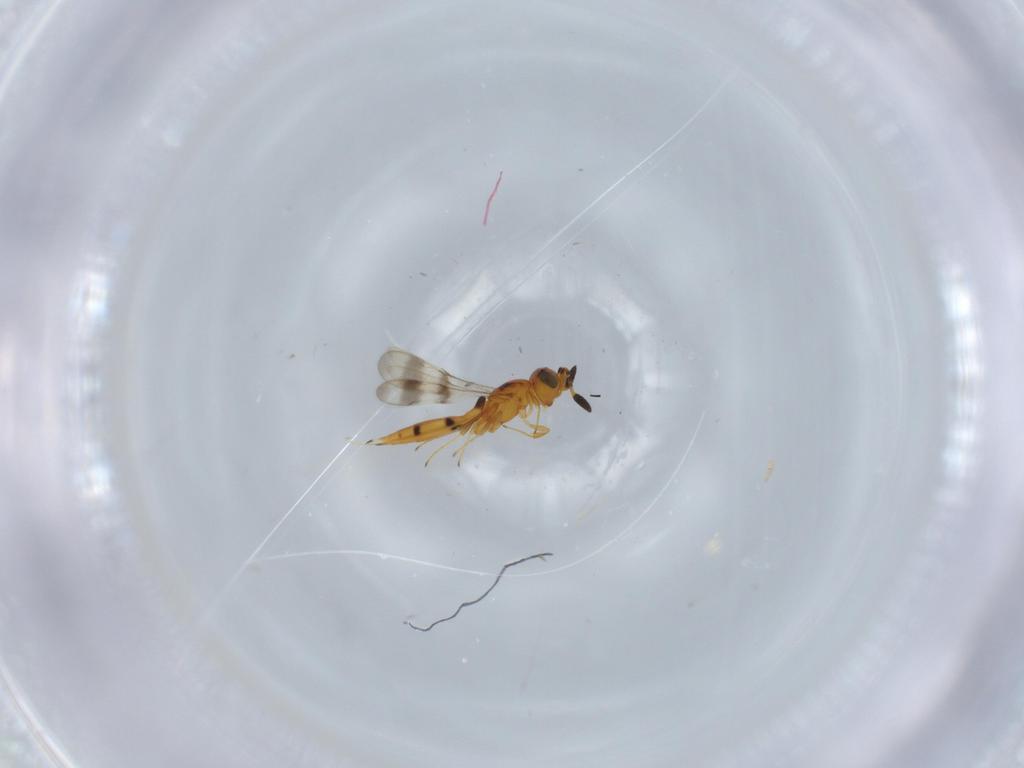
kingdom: Animalia
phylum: Arthropoda
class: Insecta
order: Hymenoptera
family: Scelionidae
